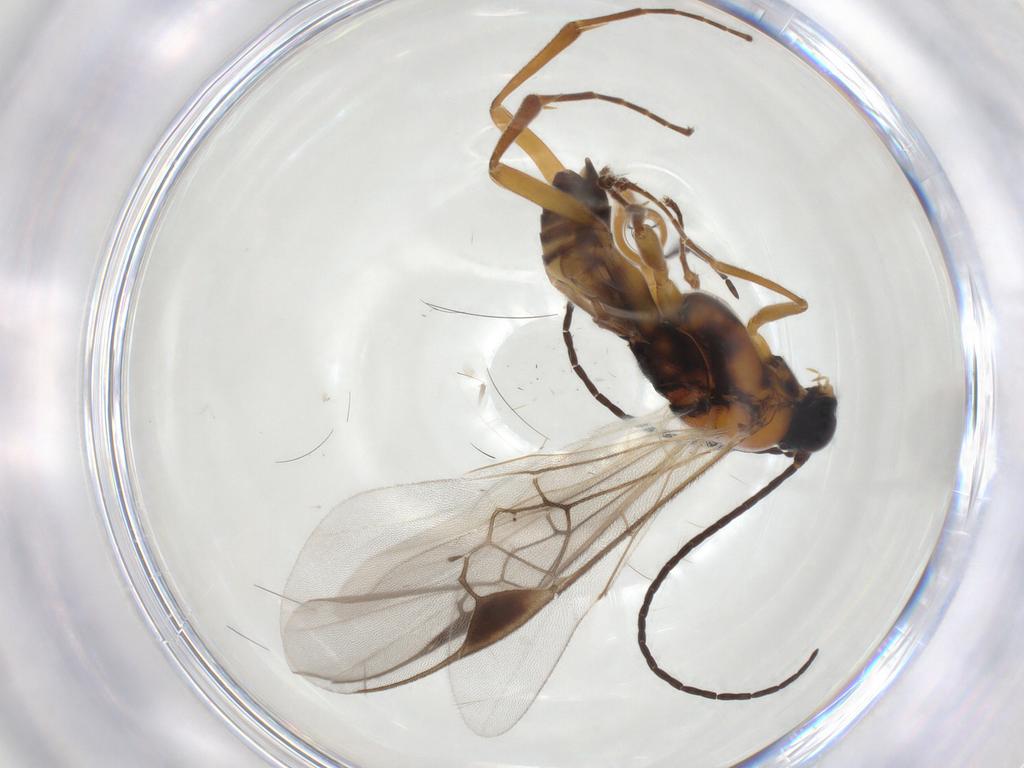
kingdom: Animalia
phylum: Arthropoda
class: Insecta
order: Hymenoptera
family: Braconidae
